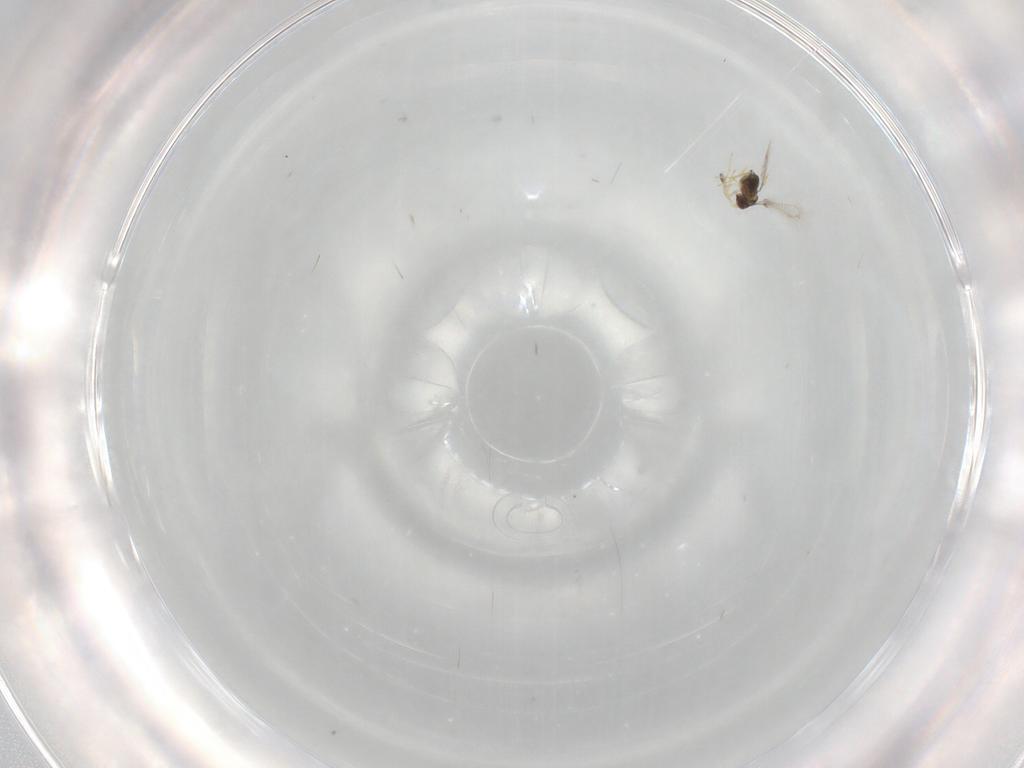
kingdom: Animalia
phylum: Arthropoda
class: Insecta
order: Hymenoptera
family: Mymaridae
